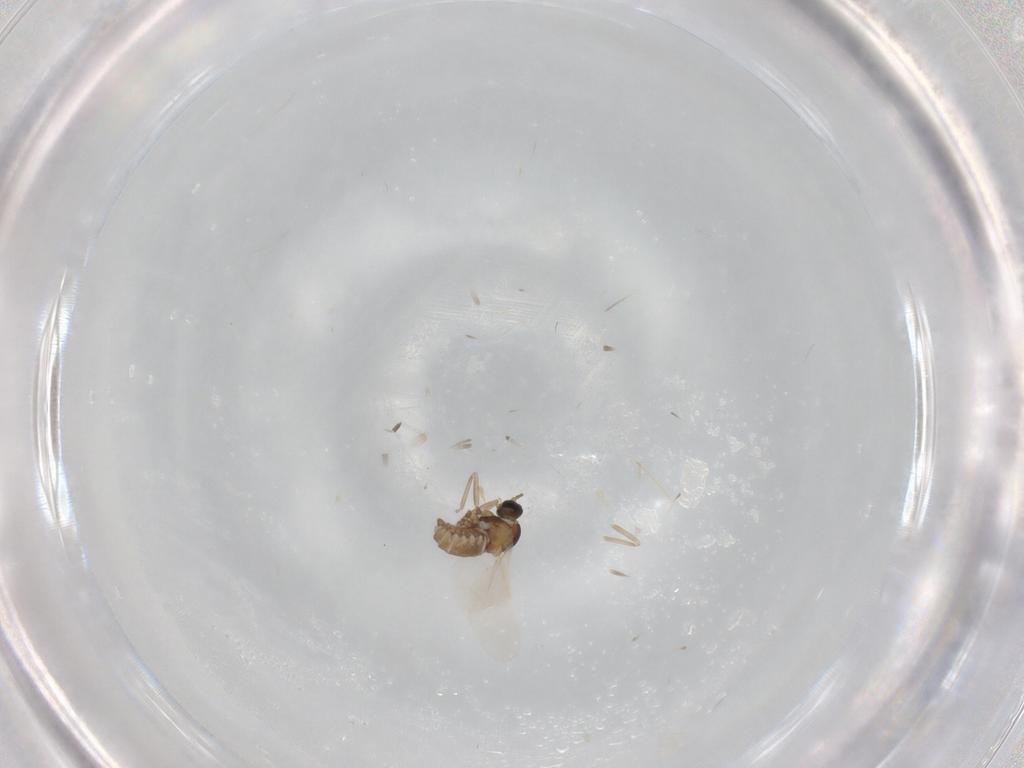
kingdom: Animalia
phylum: Arthropoda
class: Insecta
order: Diptera
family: Cecidomyiidae
